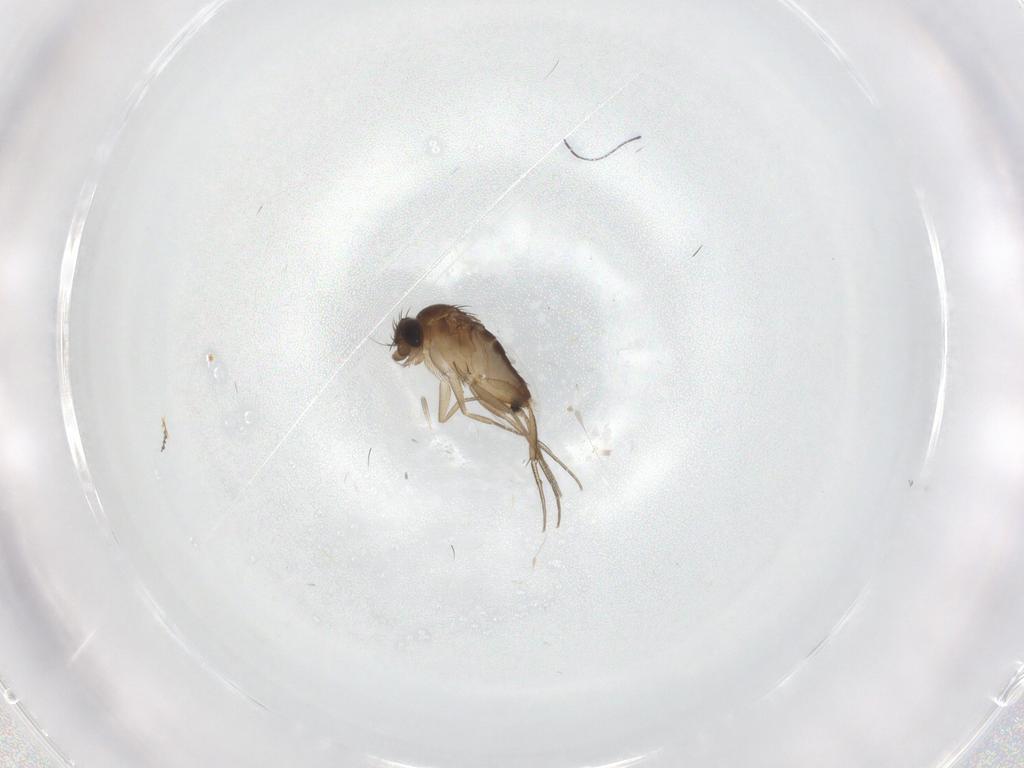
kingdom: Animalia
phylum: Arthropoda
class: Insecta
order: Diptera
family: Phoridae
